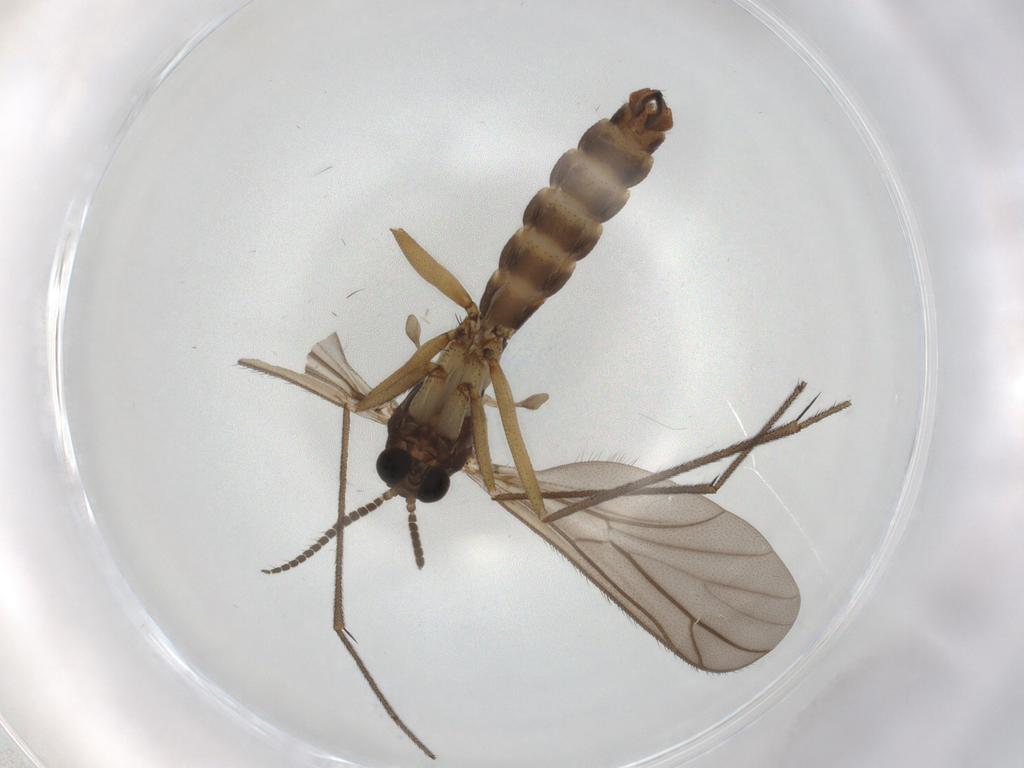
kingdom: Animalia
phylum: Arthropoda
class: Insecta
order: Diptera
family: Ditomyiidae
